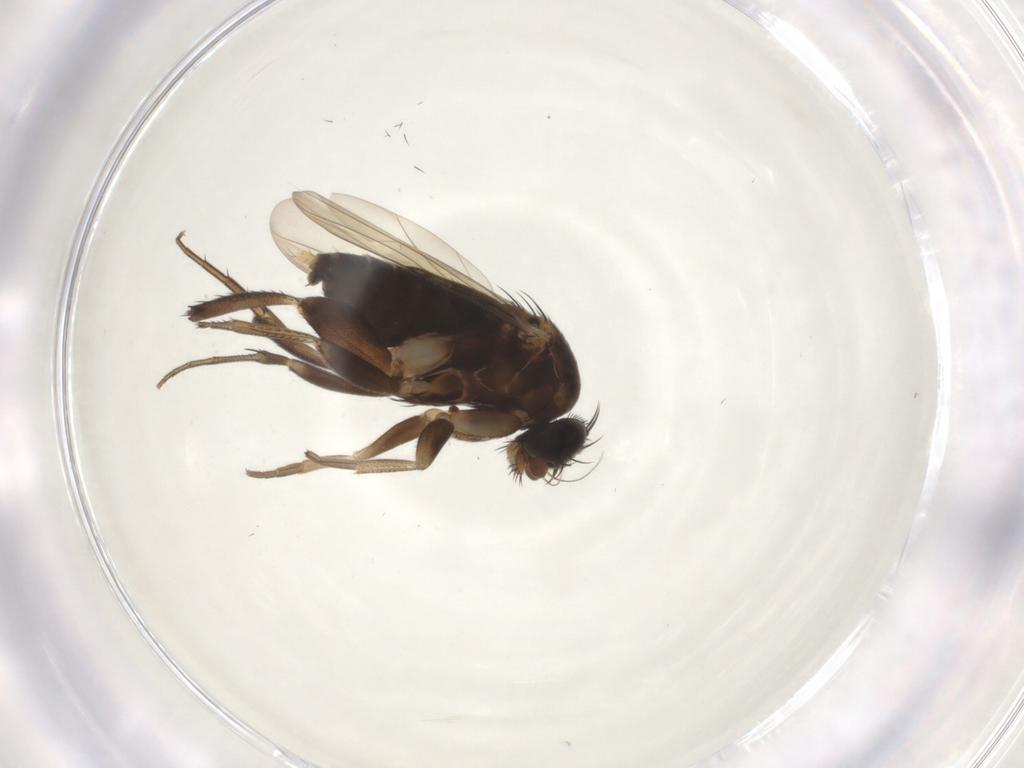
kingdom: Animalia
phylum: Arthropoda
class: Insecta
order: Diptera
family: Phoridae
